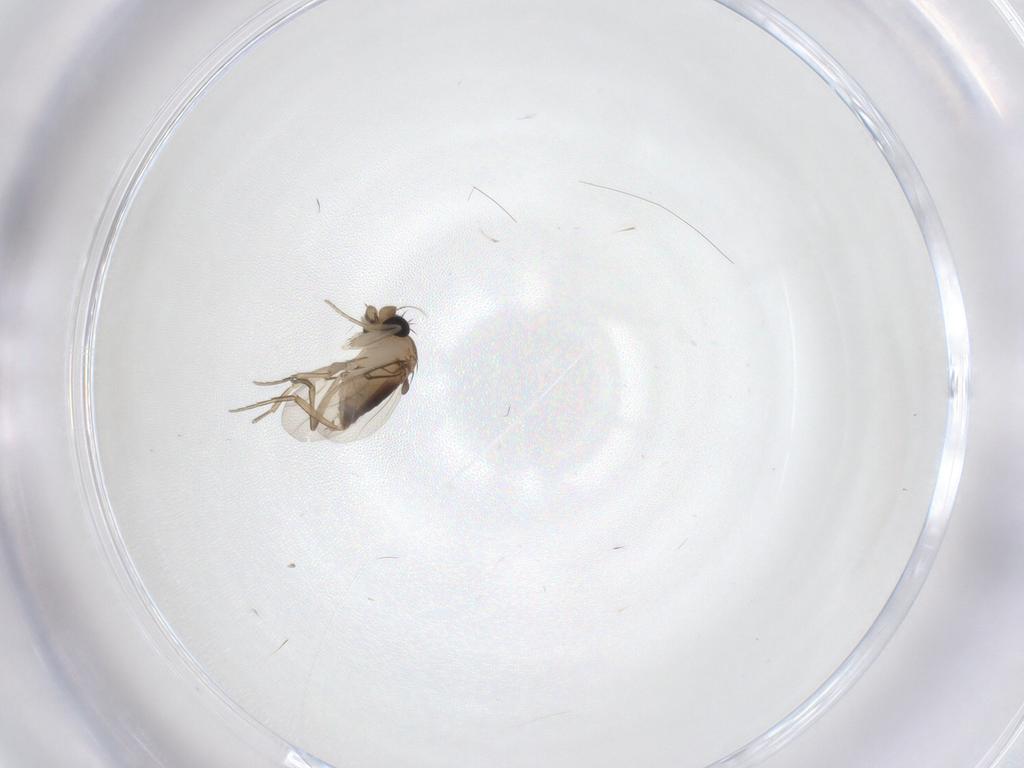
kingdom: Animalia
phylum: Arthropoda
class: Insecta
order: Diptera
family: Phoridae
